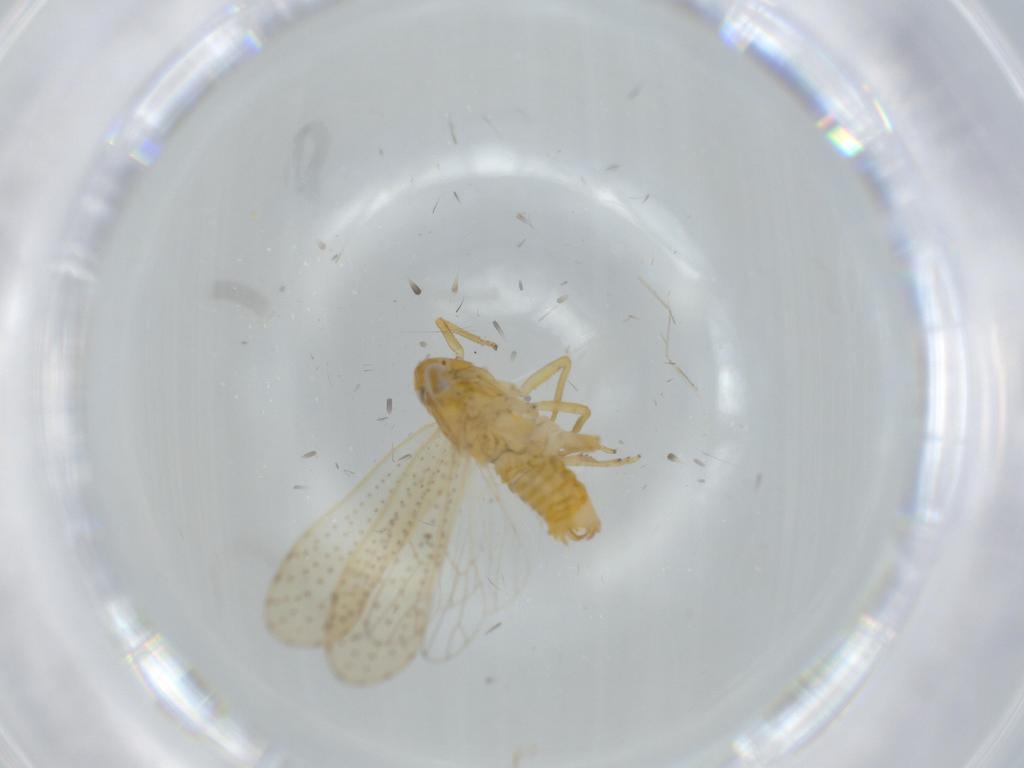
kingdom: Animalia
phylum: Arthropoda
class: Insecta
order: Hemiptera
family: Delphacidae
